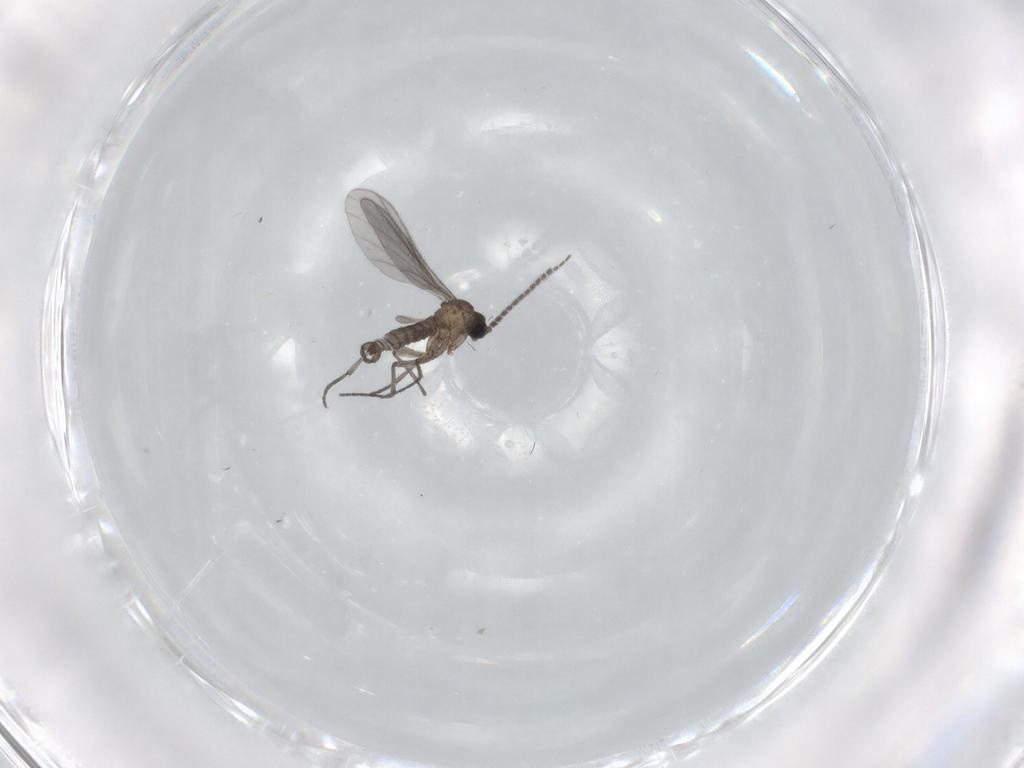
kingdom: Animalia
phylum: Arthropoda
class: Insecta
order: Diptera
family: Sciaridae
